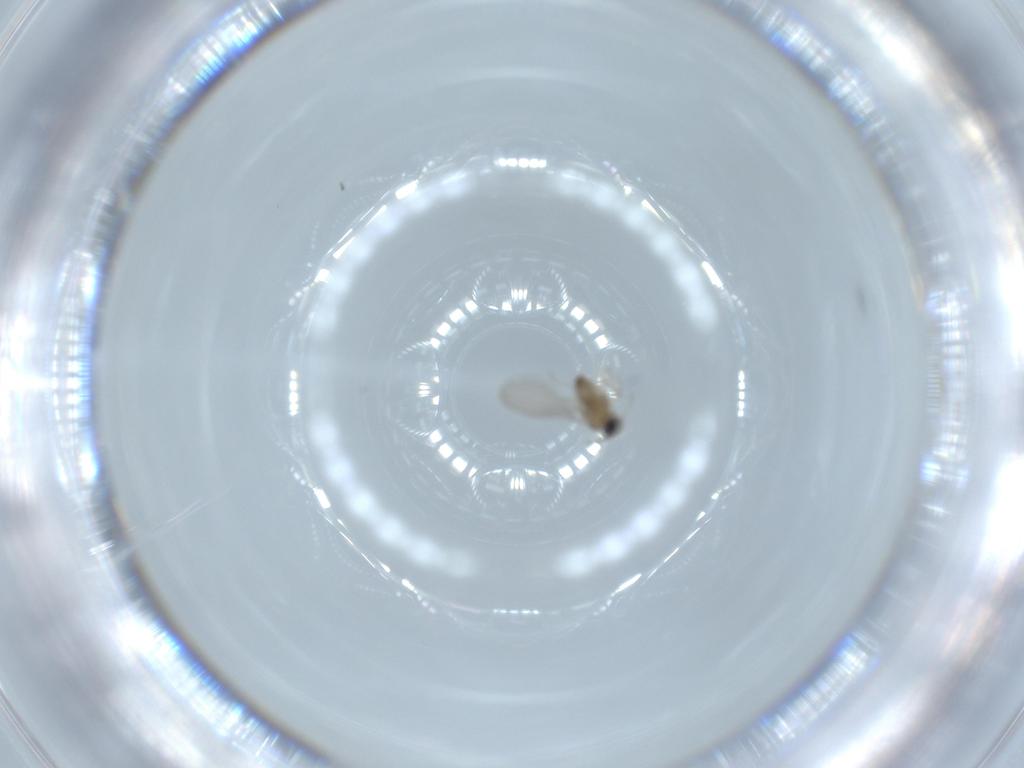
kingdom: Animalia
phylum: Arthropoda
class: Insecta
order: Diptera
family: Cecidomyiidae
